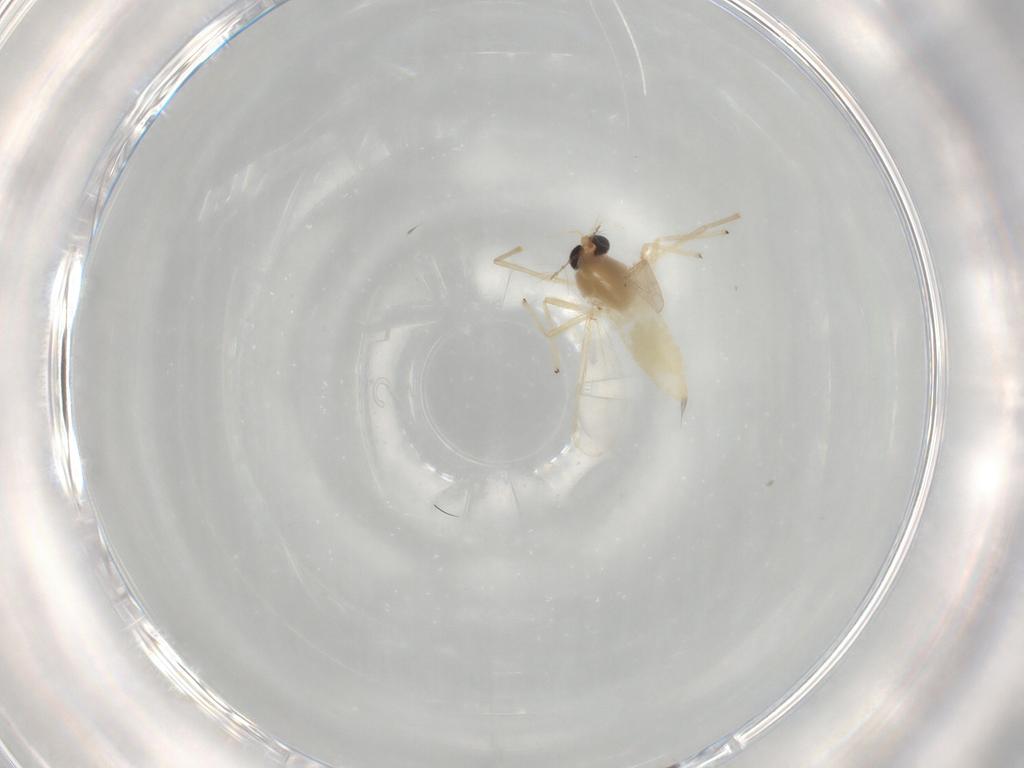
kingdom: Animalia
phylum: Arthropoda
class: Insecta
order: Diptera
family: Chironomidae
